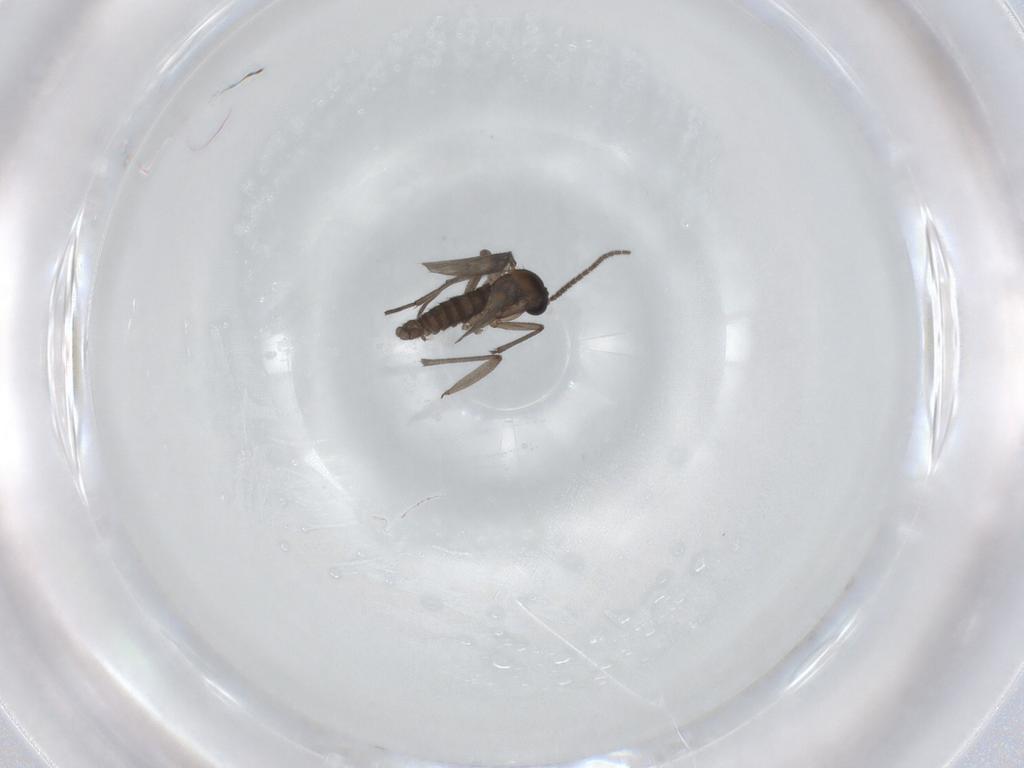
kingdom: Animalia
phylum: Arthropoda
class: Insecta
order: Diptera
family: Sciaridae
